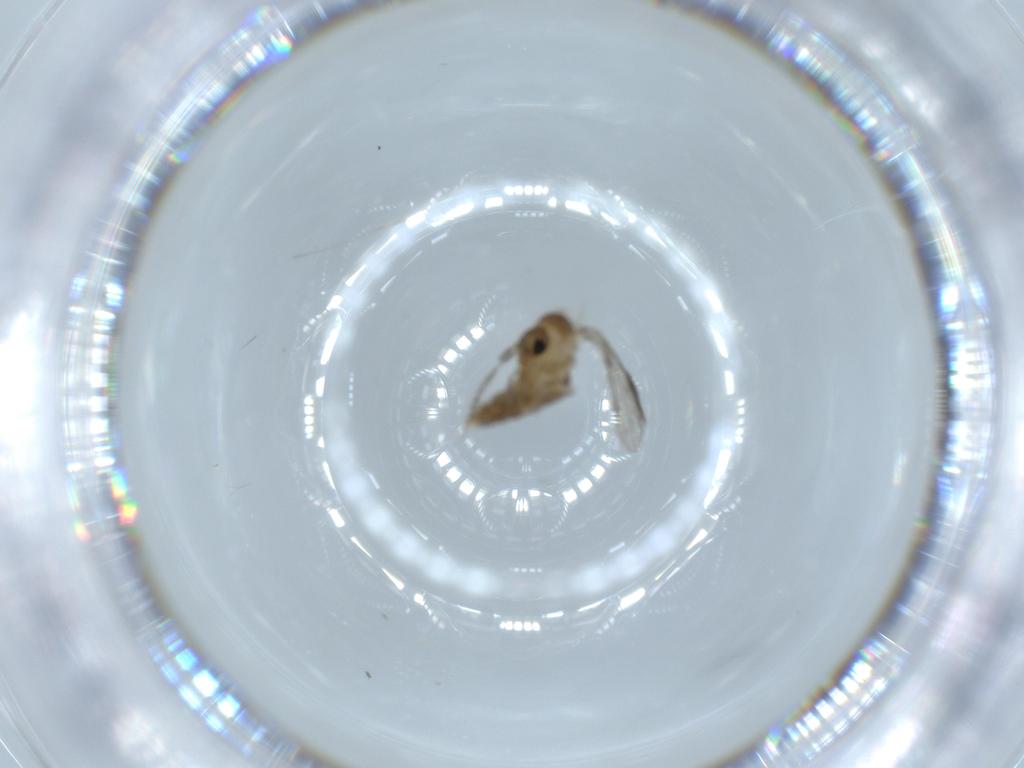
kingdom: Animalia
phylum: Arthropoda
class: Insecta
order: Diptera
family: Psychodidae
